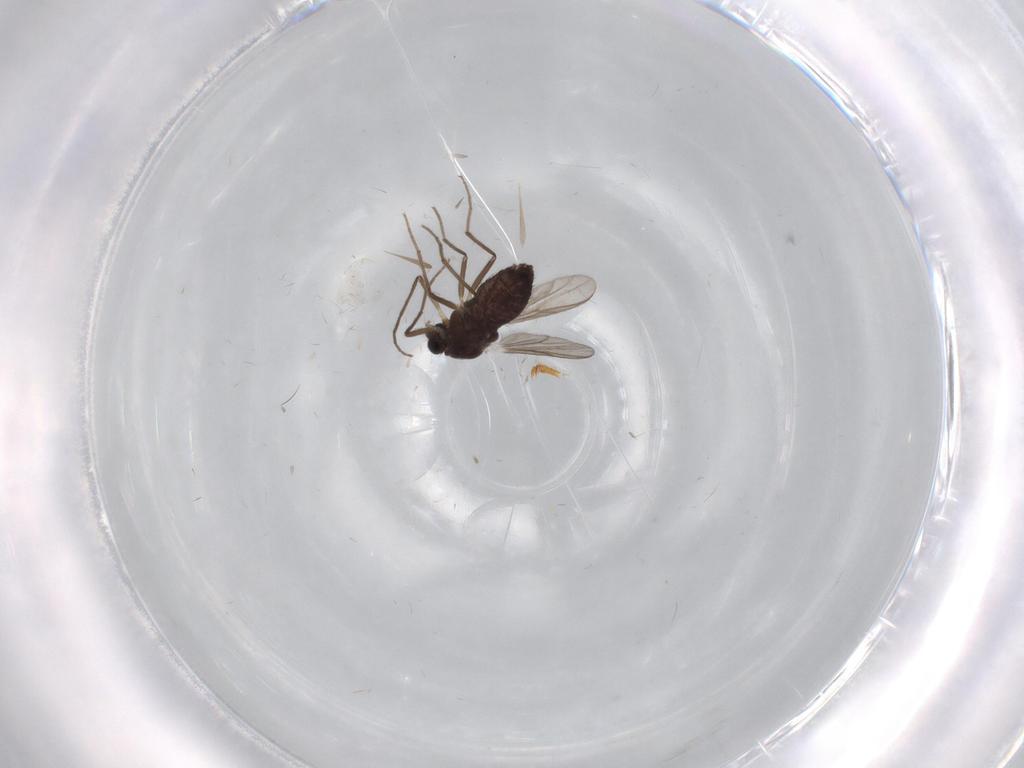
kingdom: Animalia
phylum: Arthropoda
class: Insecta
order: Diptera
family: Chironomidae
